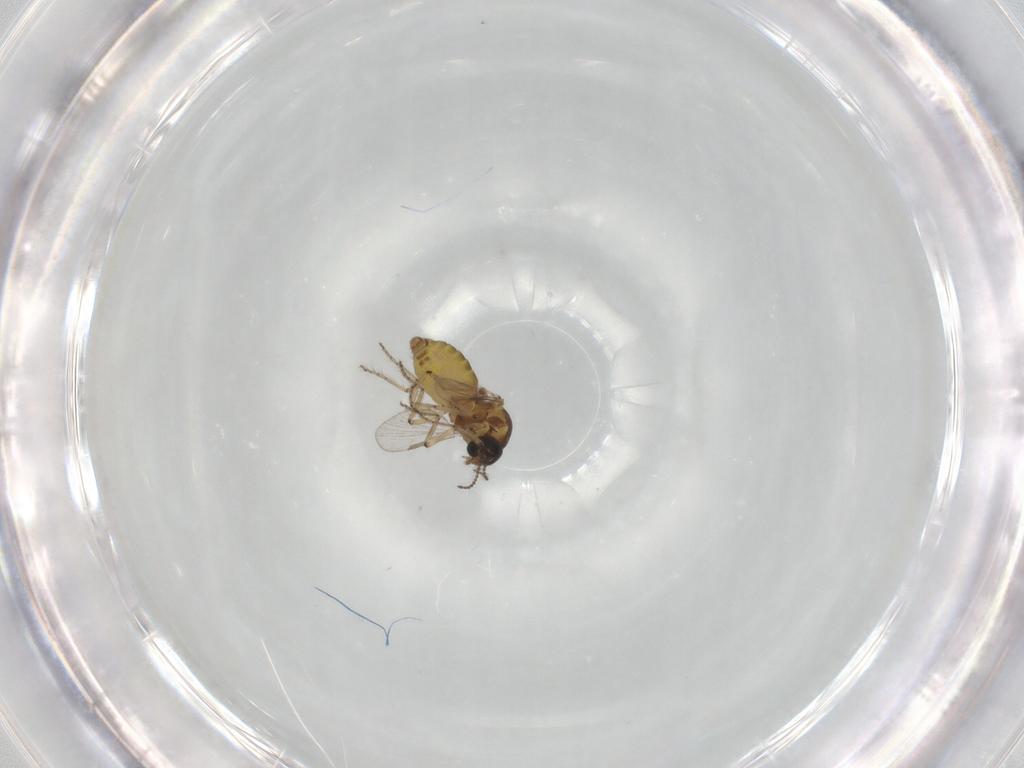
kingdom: Animalia
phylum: Arthropoda
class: Insecta
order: Diptera
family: Ceratopogonidae
